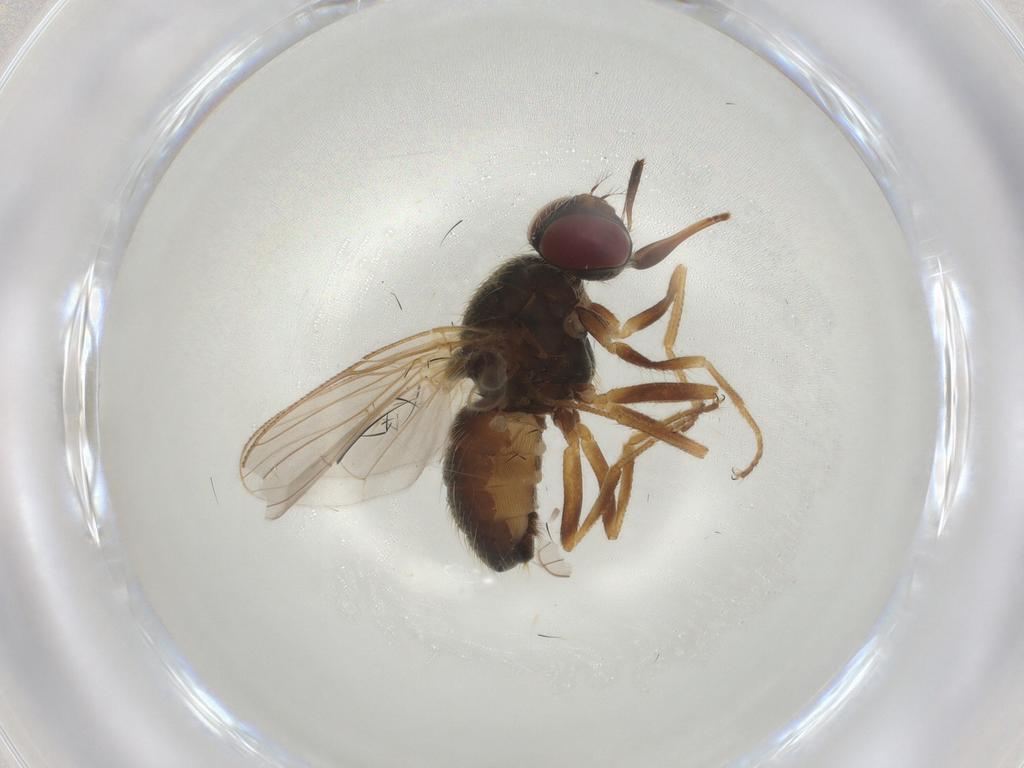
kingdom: Animalia
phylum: Arthropoda
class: Insecta
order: Diptera
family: Muscidae
